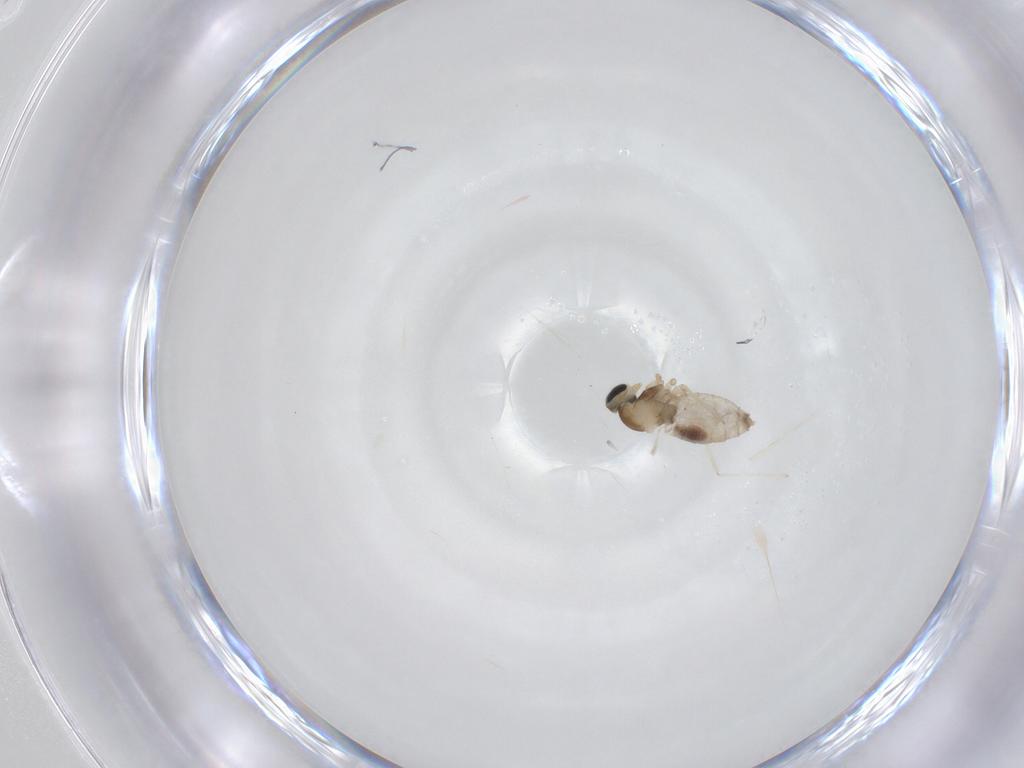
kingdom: Animalia
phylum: Arthropoda
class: Insecta
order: Diptera
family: Cecidomyiidae
